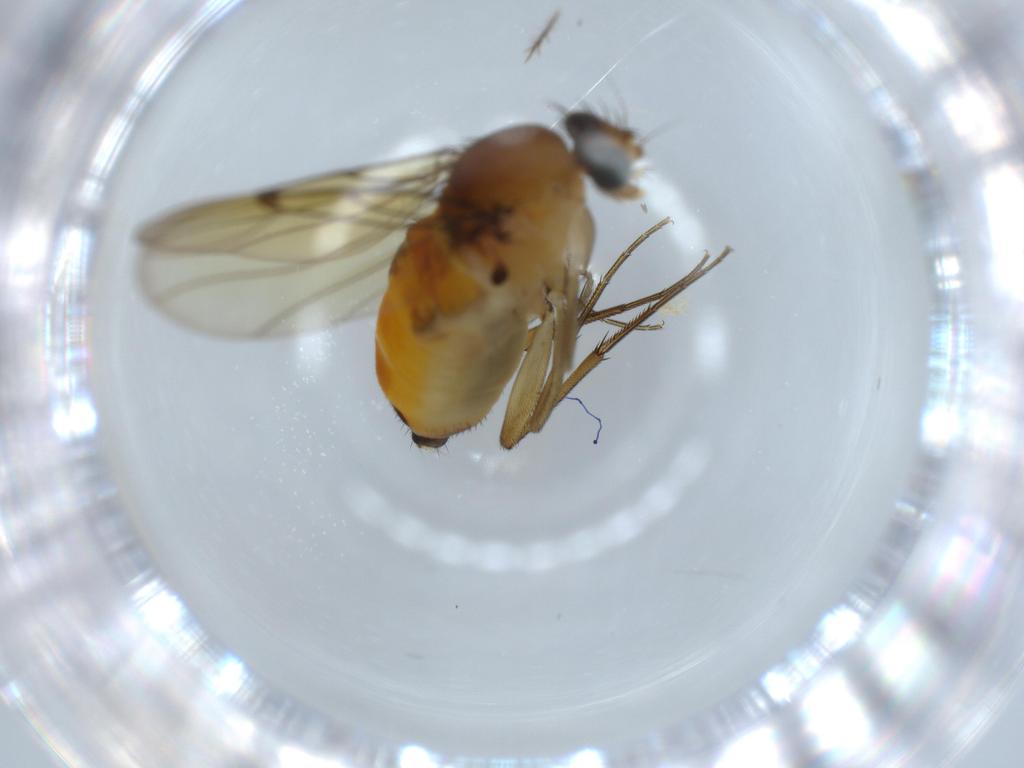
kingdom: Animalia
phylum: Arthropoda
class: Insecta
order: Diptera
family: Phoridae
